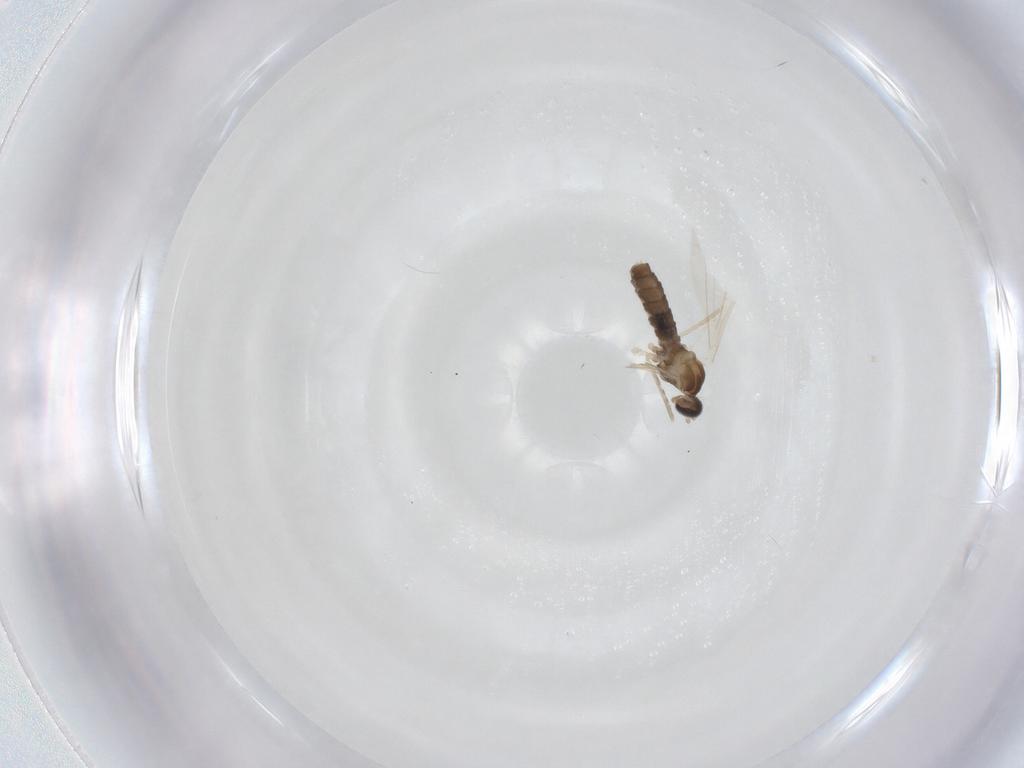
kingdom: Animalia
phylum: Arthropoda
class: Insecta
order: Diptera
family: Cecidomyiidae
